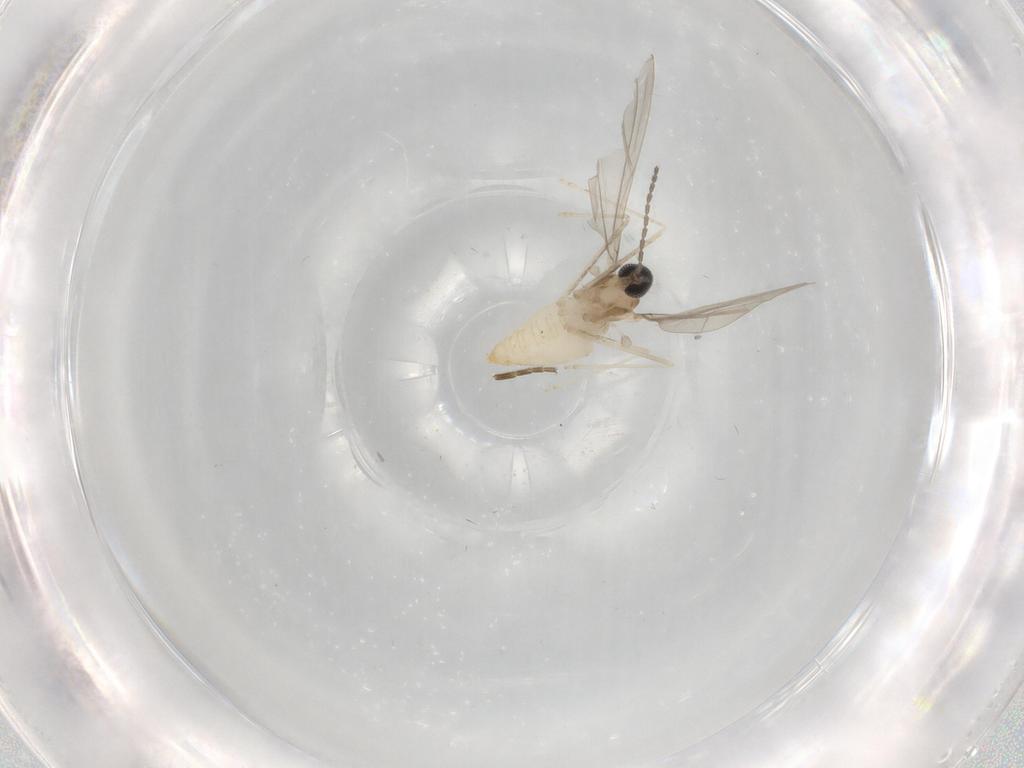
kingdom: Animalia
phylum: Arthropoda
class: Insecta
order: Diptera
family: Cecidomyiidae
